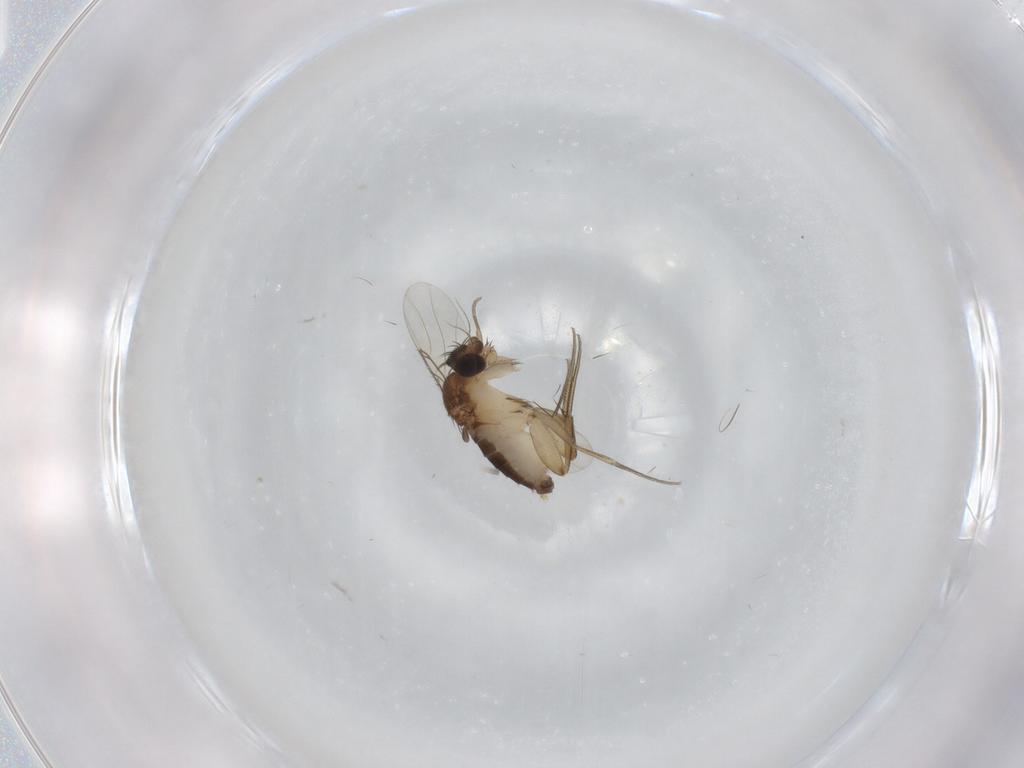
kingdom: Animalia
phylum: Arthropoda
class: Insecta
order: Diptera
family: Phoridae
